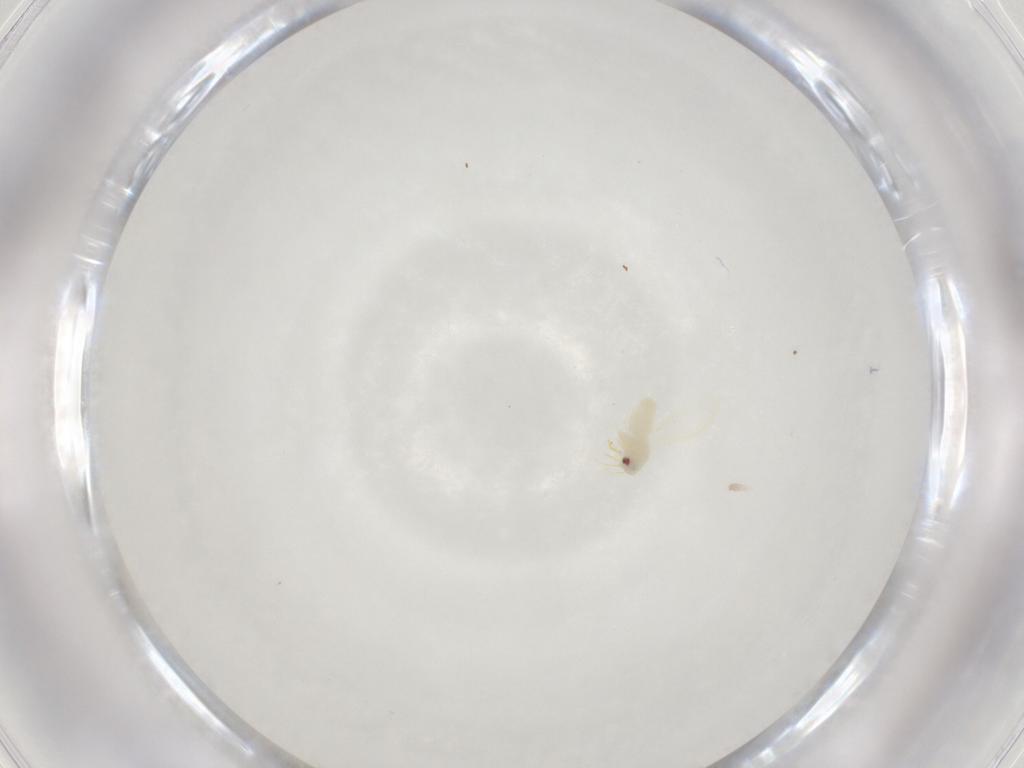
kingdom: Animalia
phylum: Arthropoda
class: Insecta
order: Hemiptera
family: Aleyrodidae
